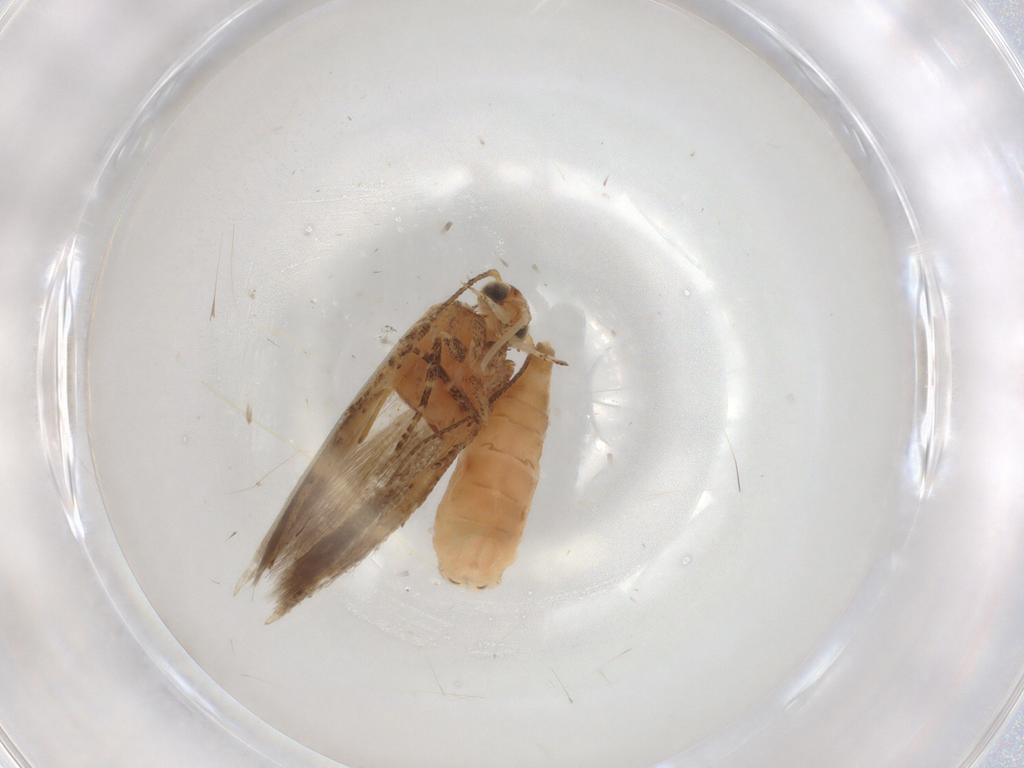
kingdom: Animalia
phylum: Arthropoda
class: Insecta
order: Lepidoptera
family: Gelechiidae
